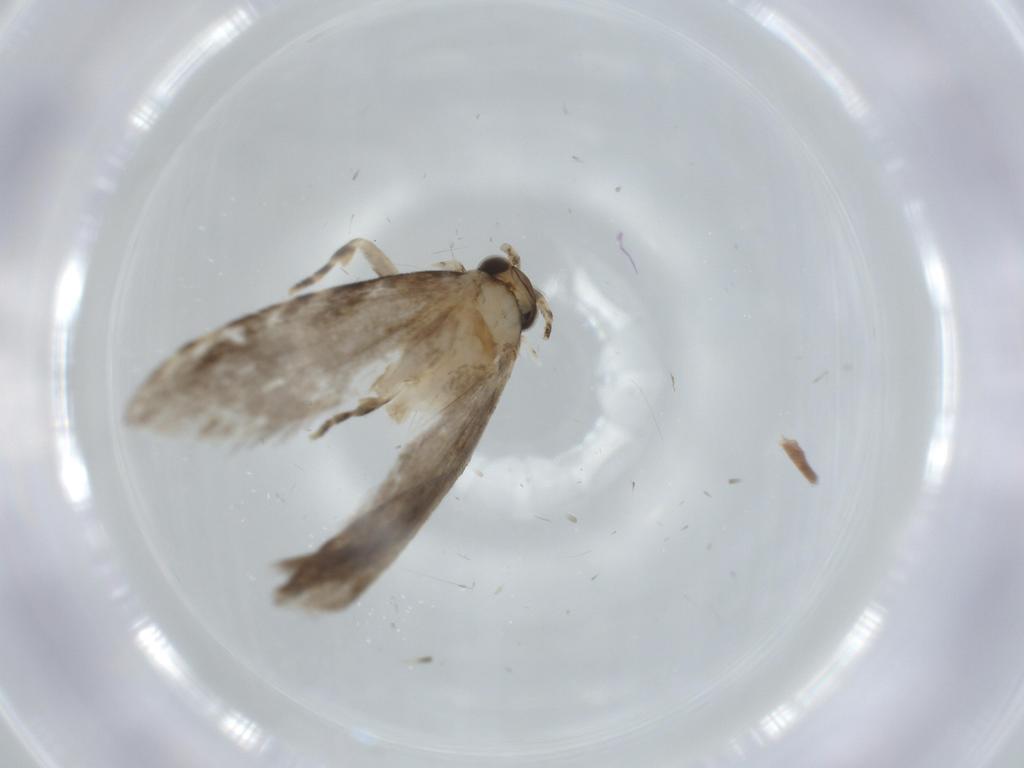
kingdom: Animalia
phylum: Arthropoda
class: Insecta
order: Lepidoptera
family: Tineidae
